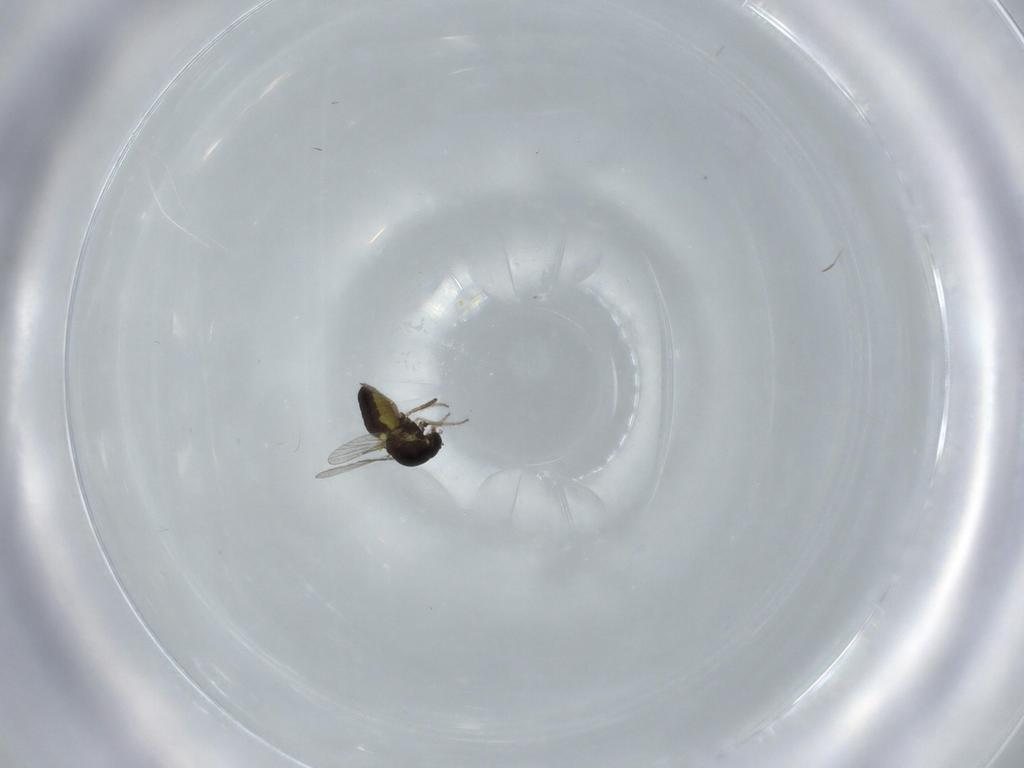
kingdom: Animalia
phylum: Arthropoda
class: Insecta
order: Diptera
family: Ceratopogonidae
